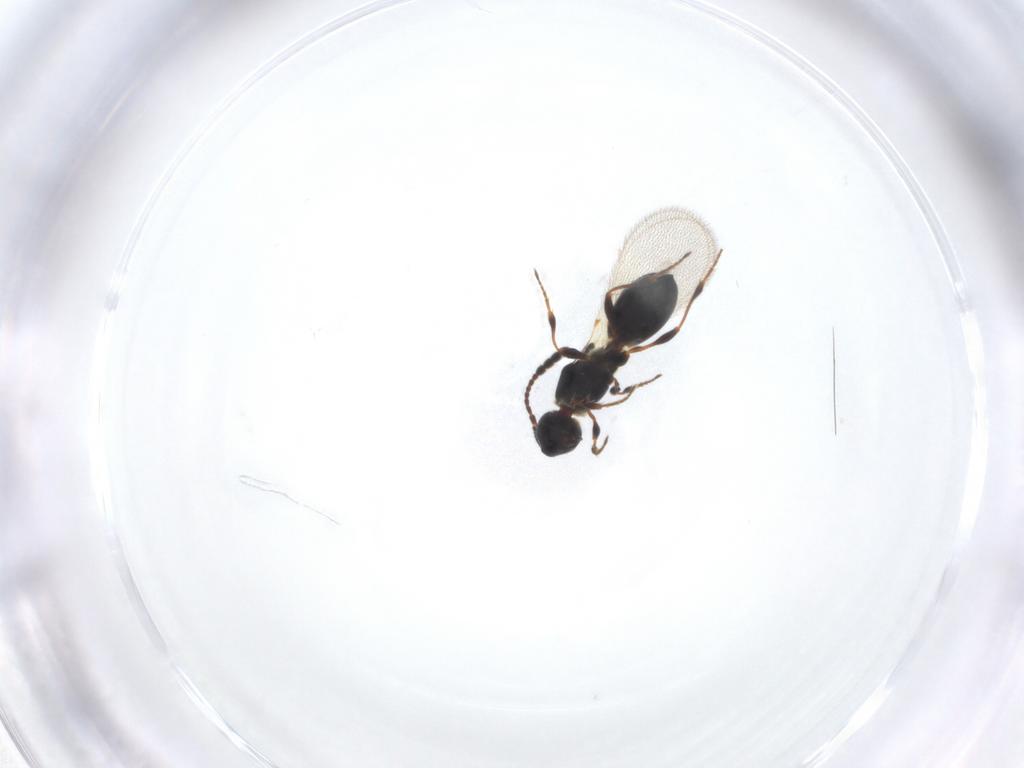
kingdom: Animalia
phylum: Arthropoda
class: Insecta
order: Hymenoptera
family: Diapriidae
